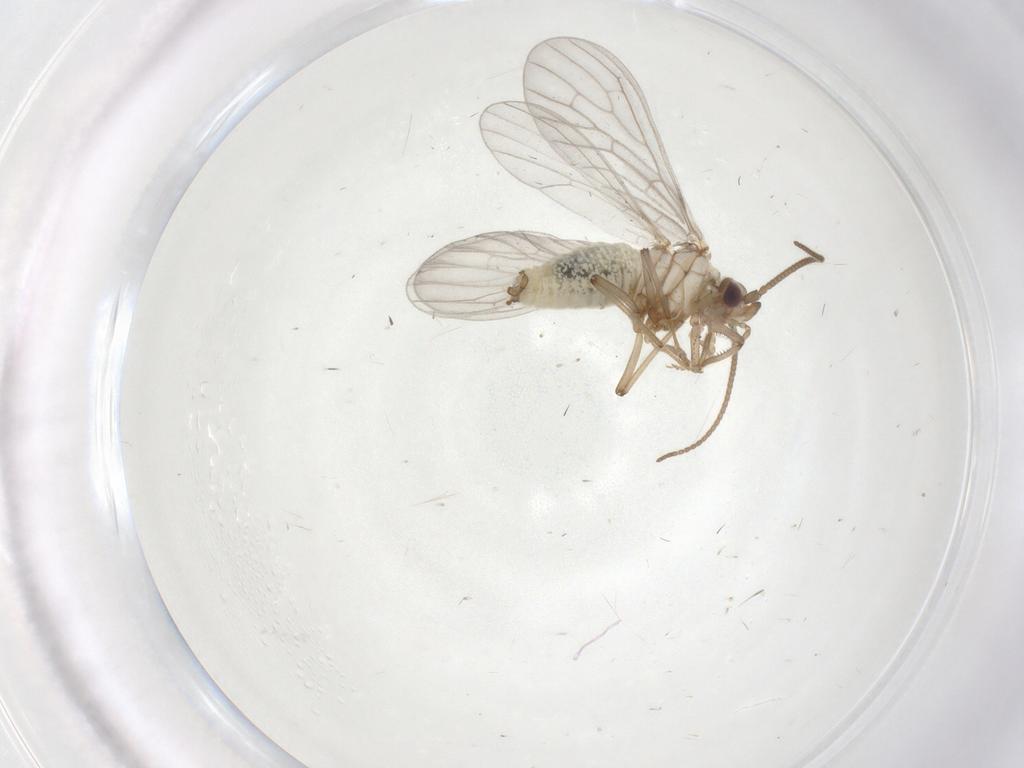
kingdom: Animalia
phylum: Arthropoda
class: Insecta
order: Neuroptera
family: Coniopterygidae
